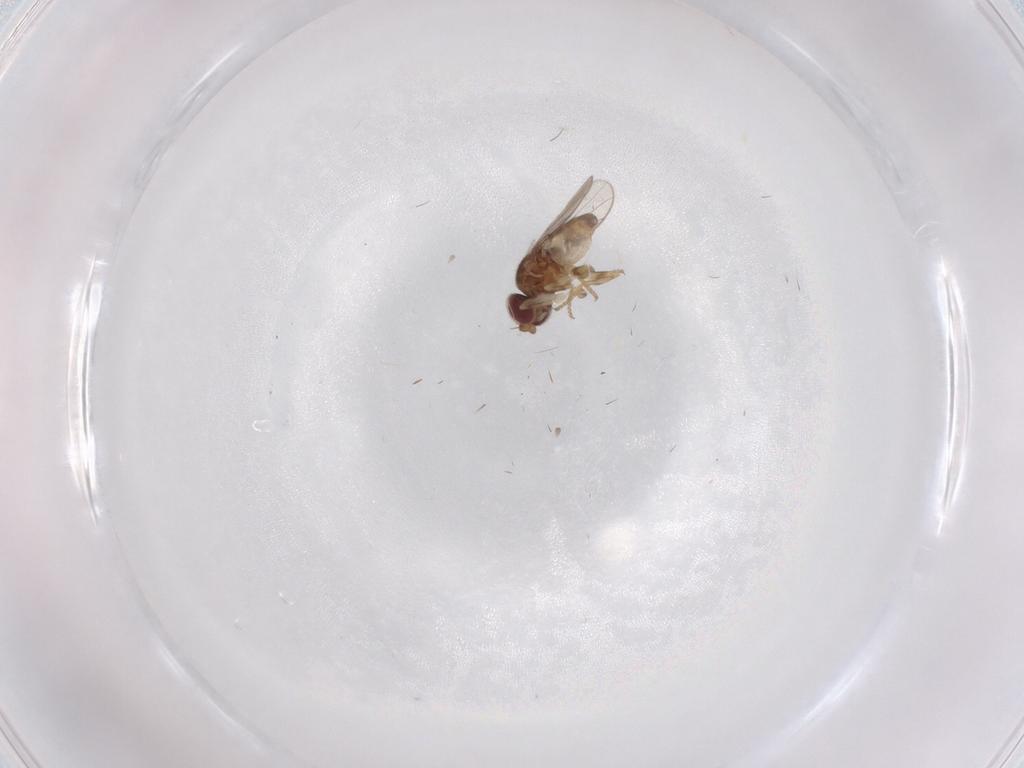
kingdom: Animalia
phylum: Arthropoda
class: Insecta
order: Diptera
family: Chloropidae
